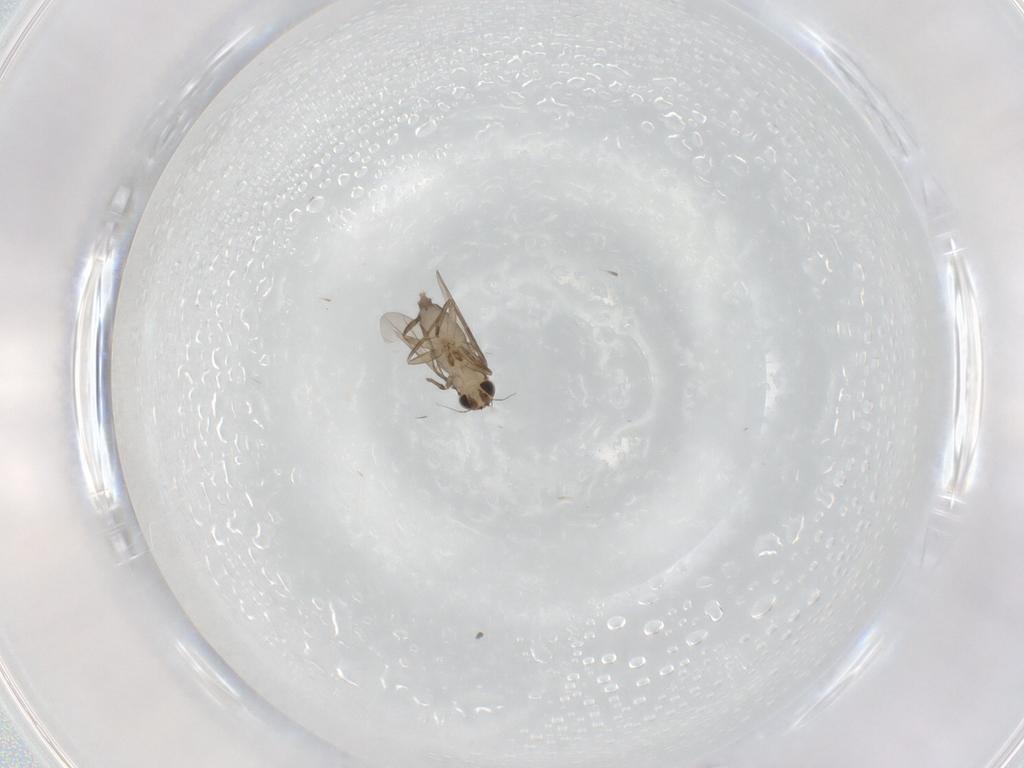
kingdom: Animalia
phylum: Arthropoda
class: Insecta
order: Diptera
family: Phoridae
